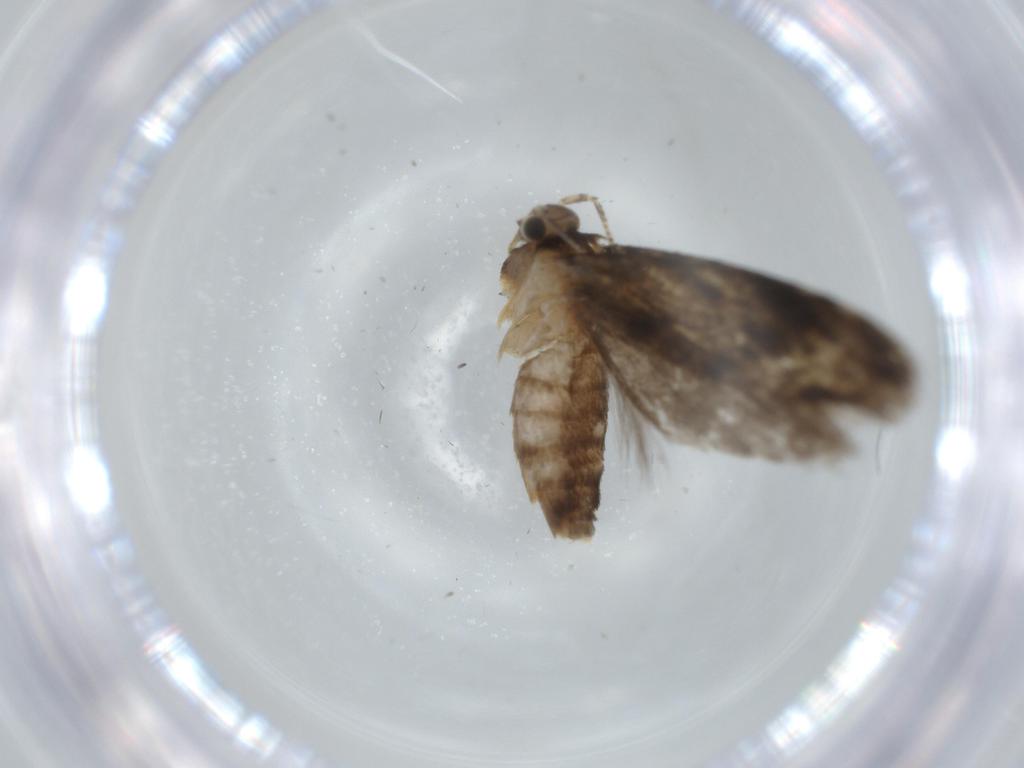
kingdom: Animalia
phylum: Arthropoda
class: Insecta
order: Lepidoptera
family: Tineidae
